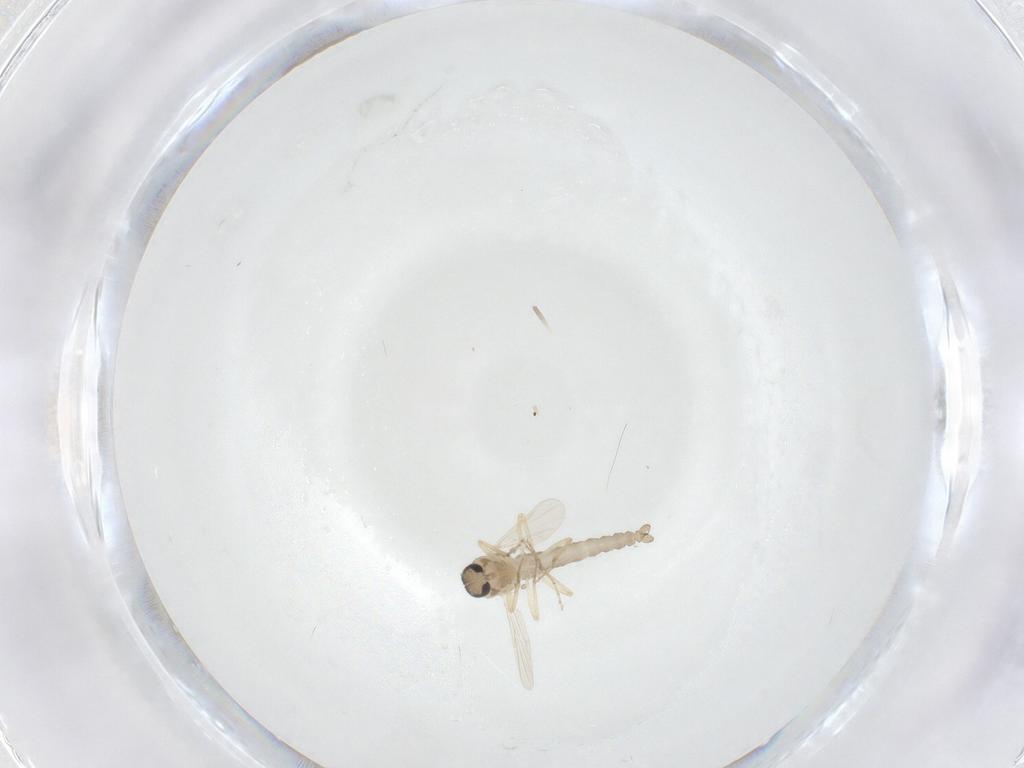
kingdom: Animalia
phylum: Arthropoda
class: Insecta
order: Diptera
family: Ceratopogonidae
